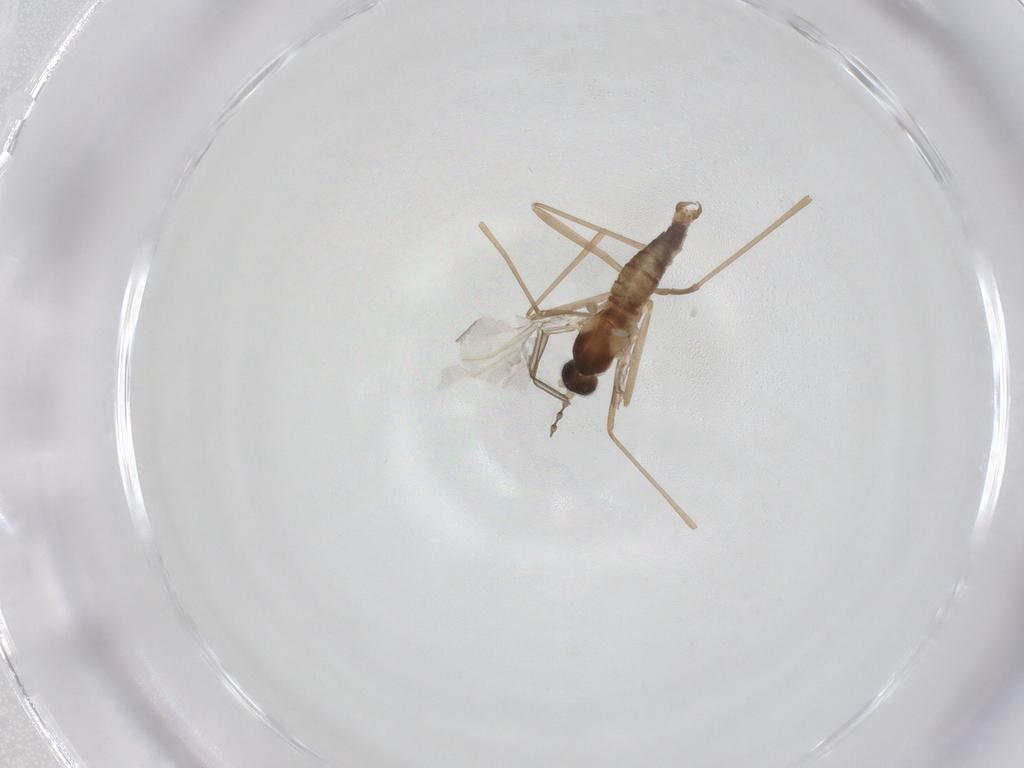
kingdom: Animalia
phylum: Arthropoda
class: Insecta
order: Diptera
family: Cecidomyiidae
